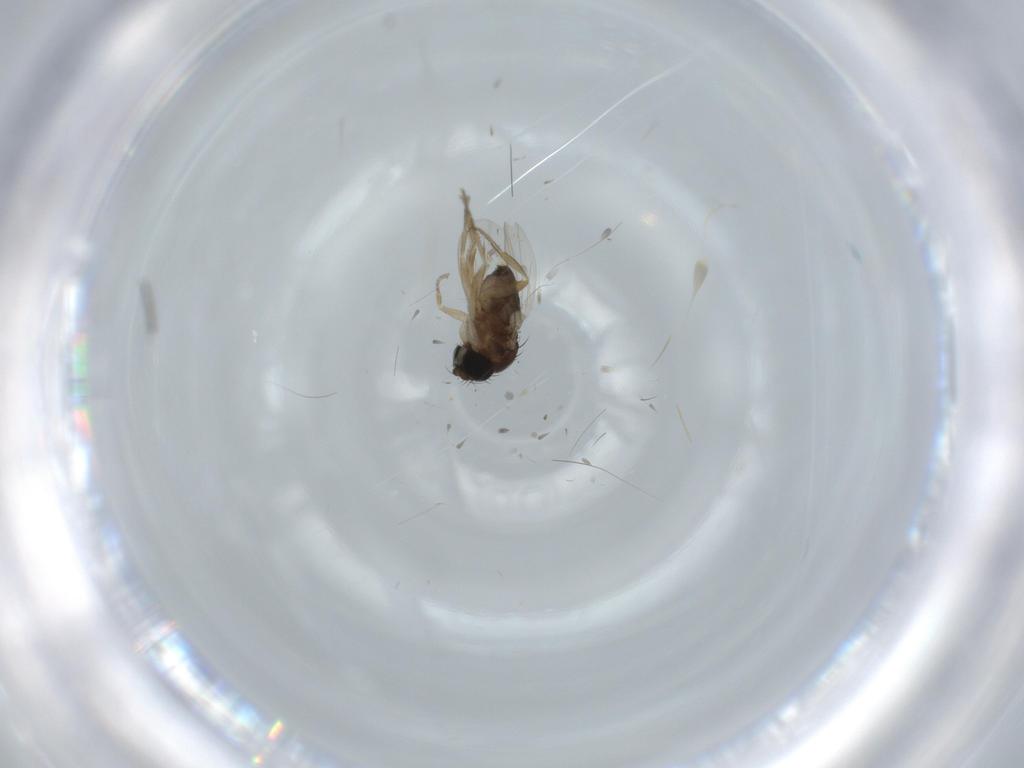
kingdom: Animalia
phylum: Arthropoda
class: Insecta
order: Diptera
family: Sciaridae
